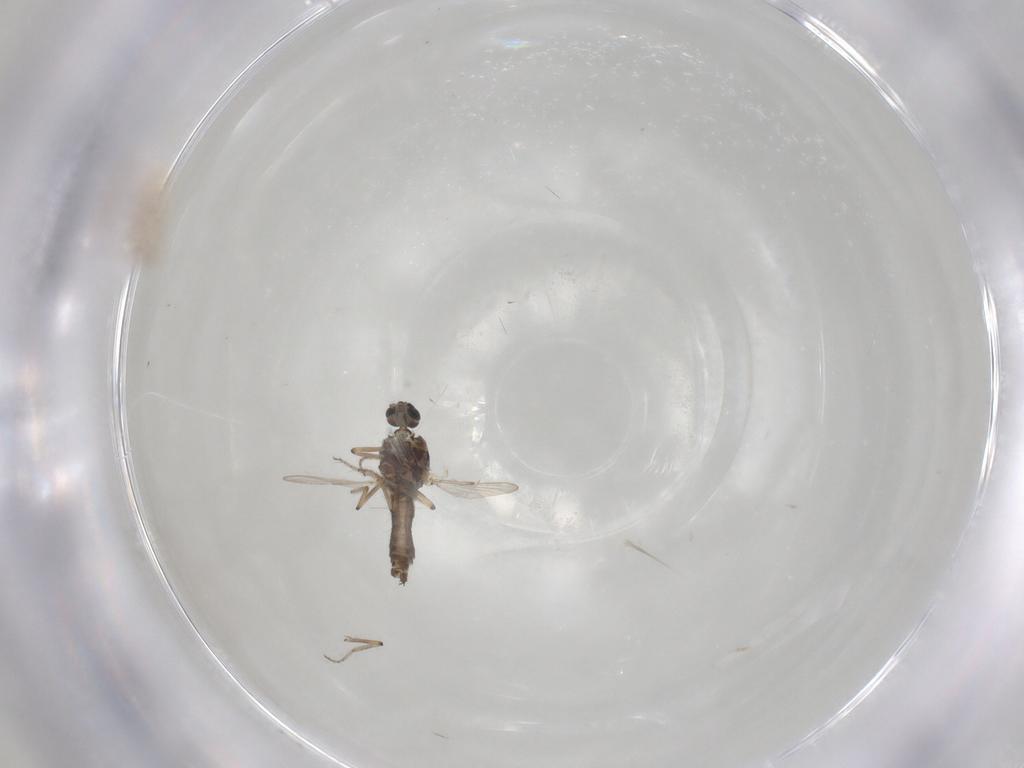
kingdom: Animalia
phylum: Arthropoda
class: Insecta
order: Diptera
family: Ceratopogonidae
